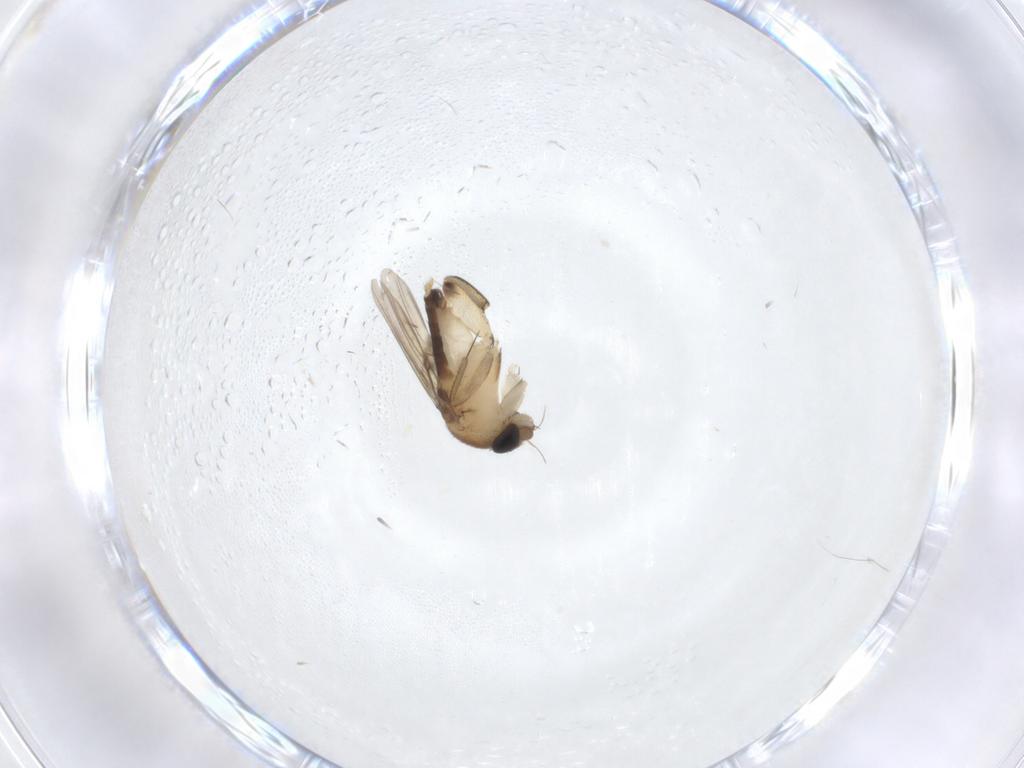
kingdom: Animalia
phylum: Arthropoda
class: Insecta
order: Diptera
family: Phoridae
